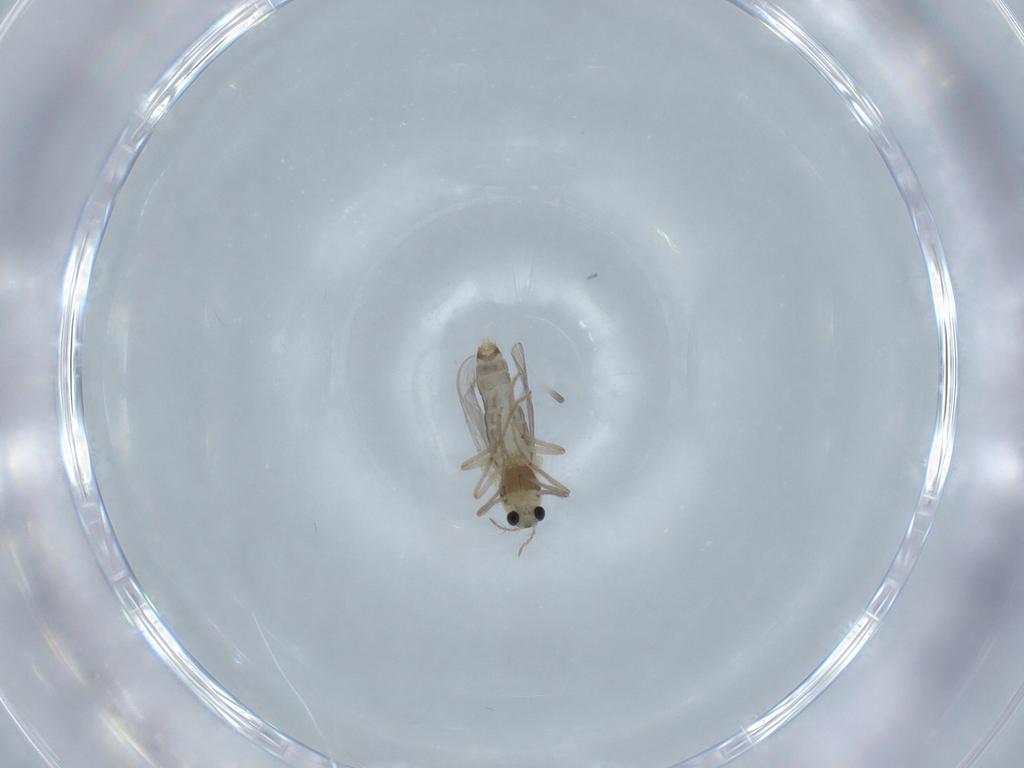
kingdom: Animalia
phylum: Arthropoda
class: Insecta
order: Diptera
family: Chironomidae
